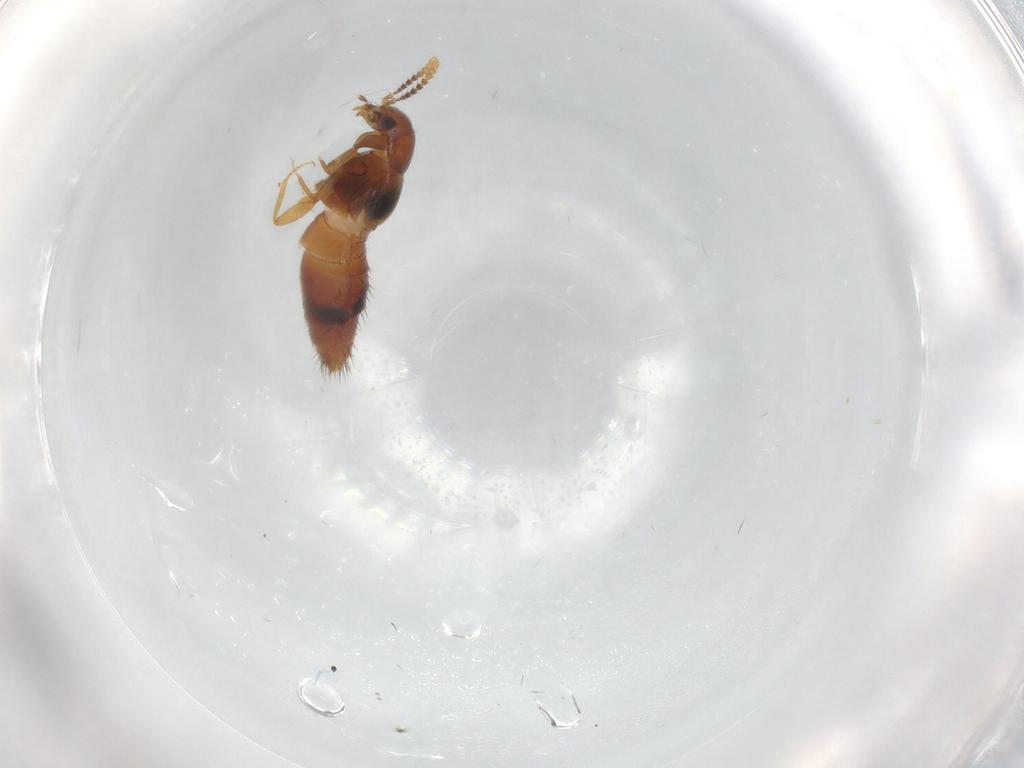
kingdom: Animalia
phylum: Arthropoda
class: Insecta
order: Coleoptera
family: Staphylinidae
